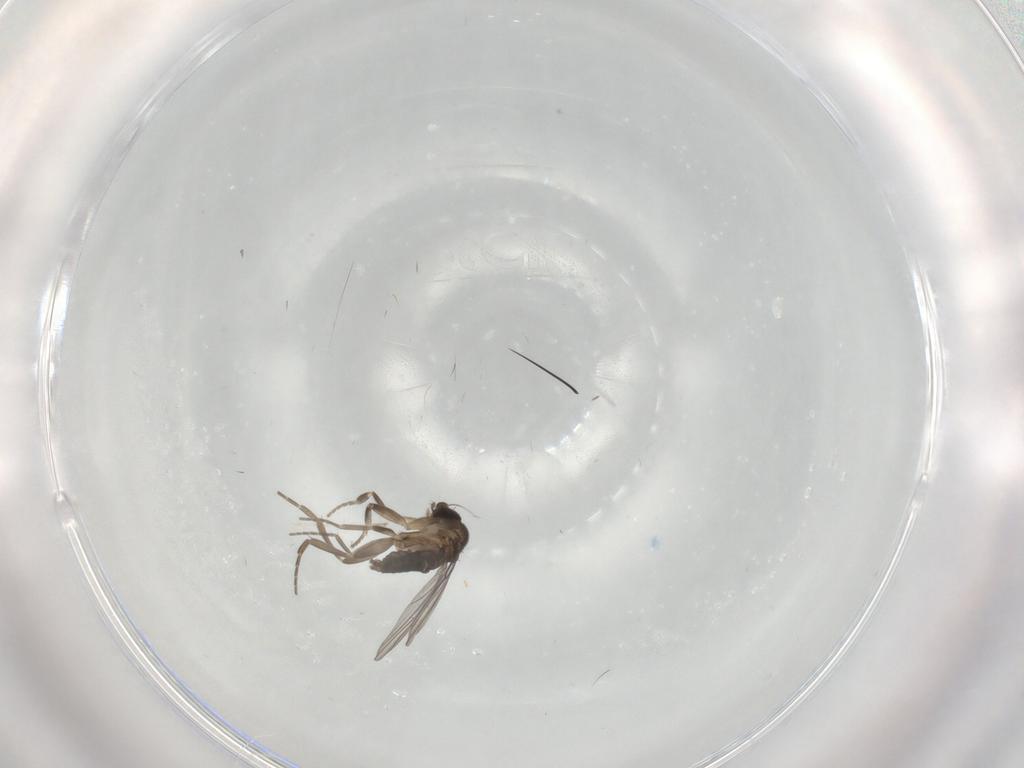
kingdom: Animalia
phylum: Arthropoda
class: Insecta
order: Diptera
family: Cecidomyiidae
